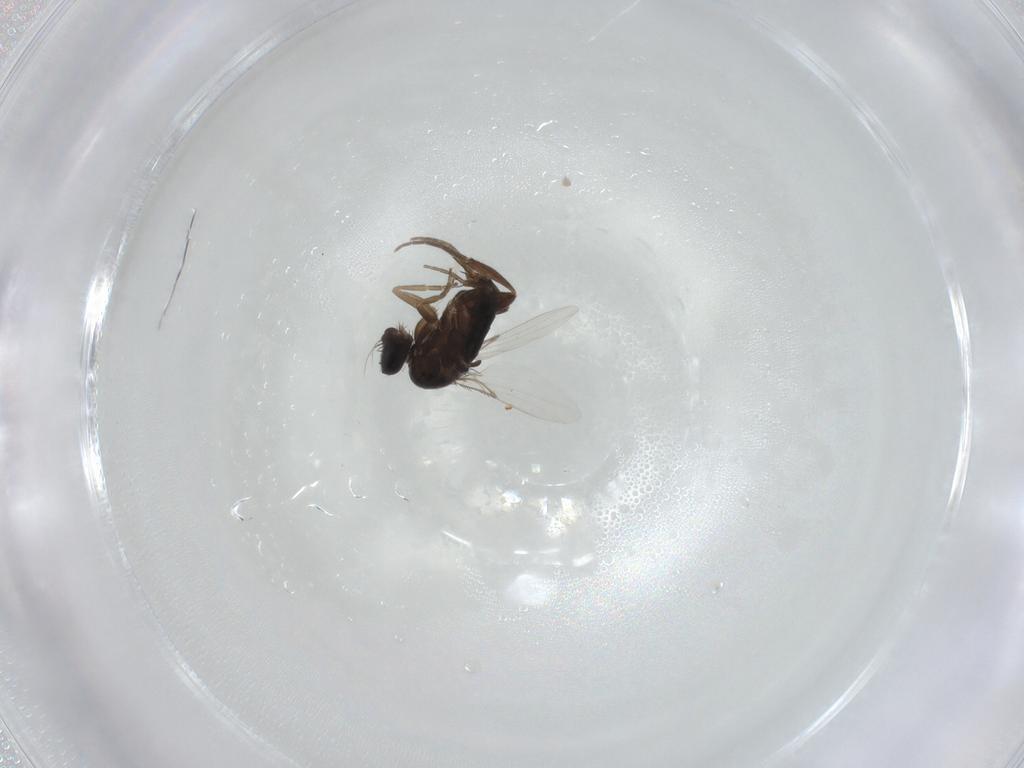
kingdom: Animalia
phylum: Arthropoda
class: Insecta
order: Diptera
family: Phoridae
